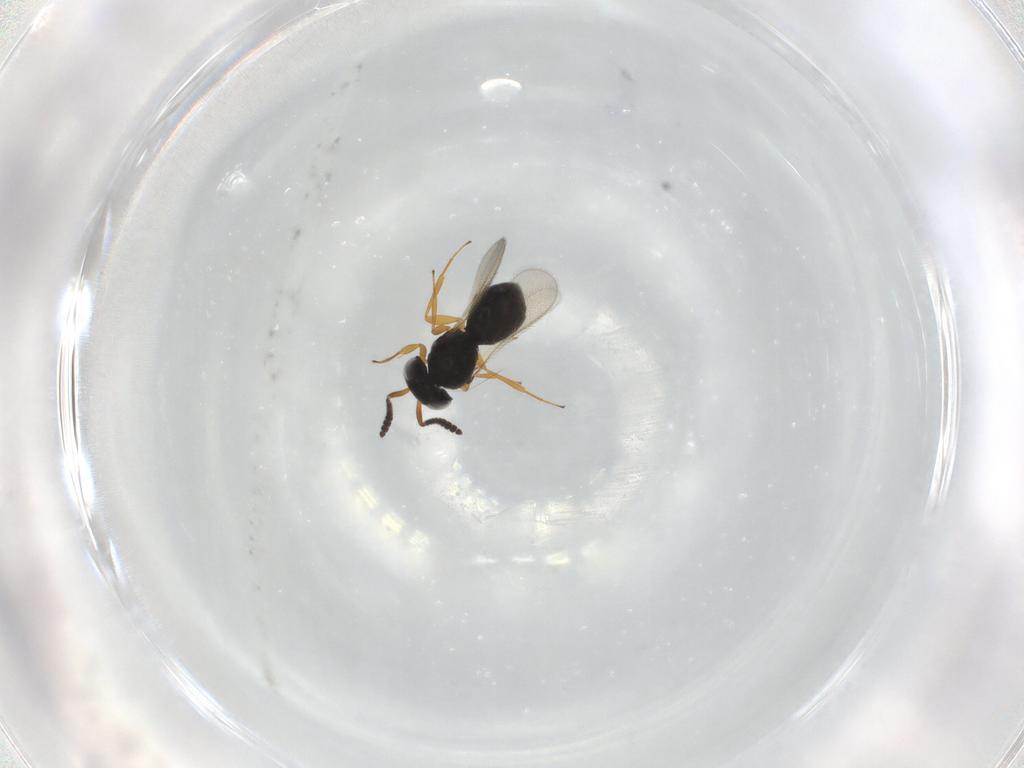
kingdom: Animalia
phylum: Arthropoda
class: Insecta
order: Hymenoptera
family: Scelionidae
